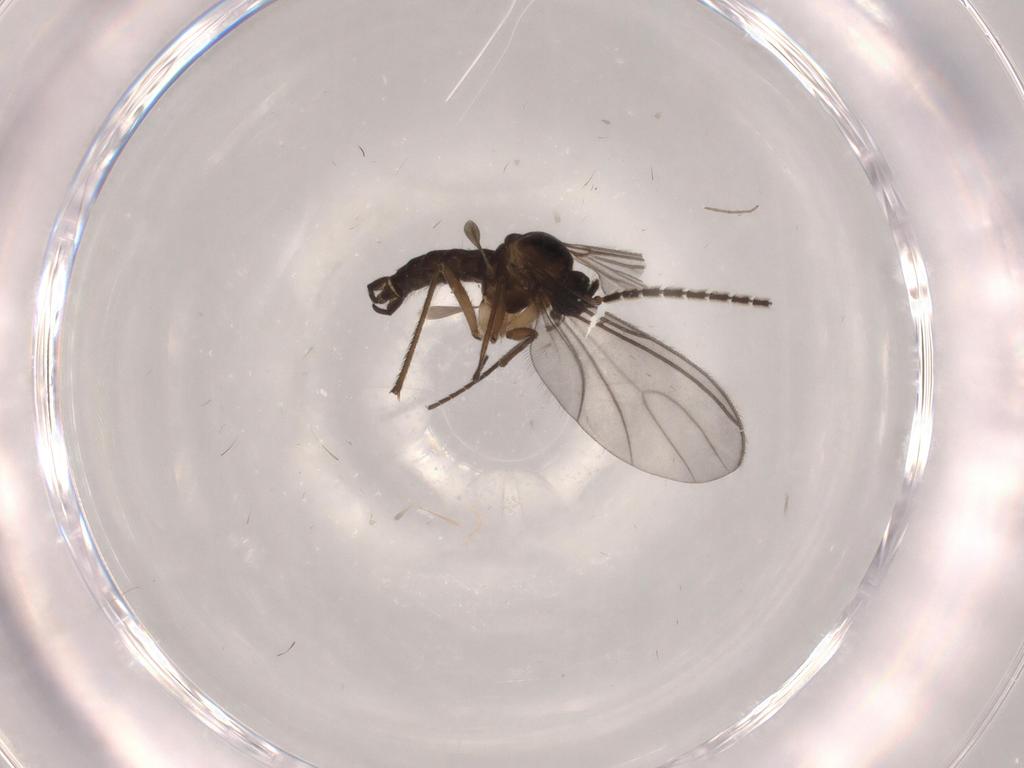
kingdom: Animalia
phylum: Arthropoda
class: Insecta
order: Diptera
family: Chironomidae
